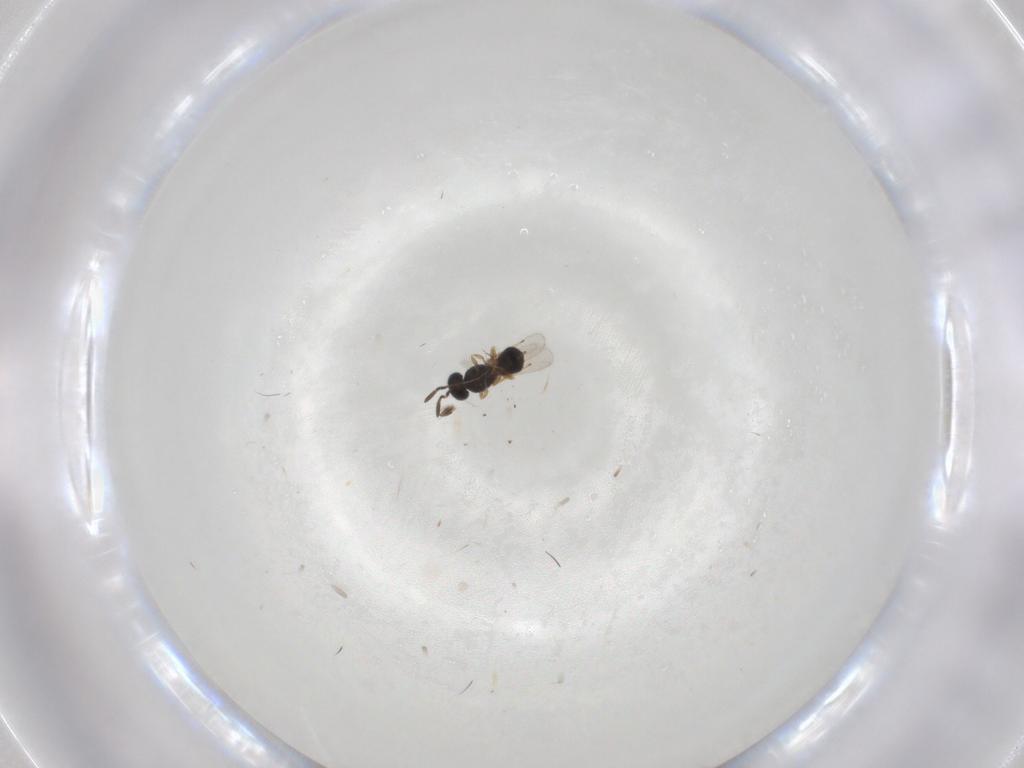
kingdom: Animalia
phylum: Arthropoda
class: Insecta
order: Hymenoptera
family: Scelionidae
